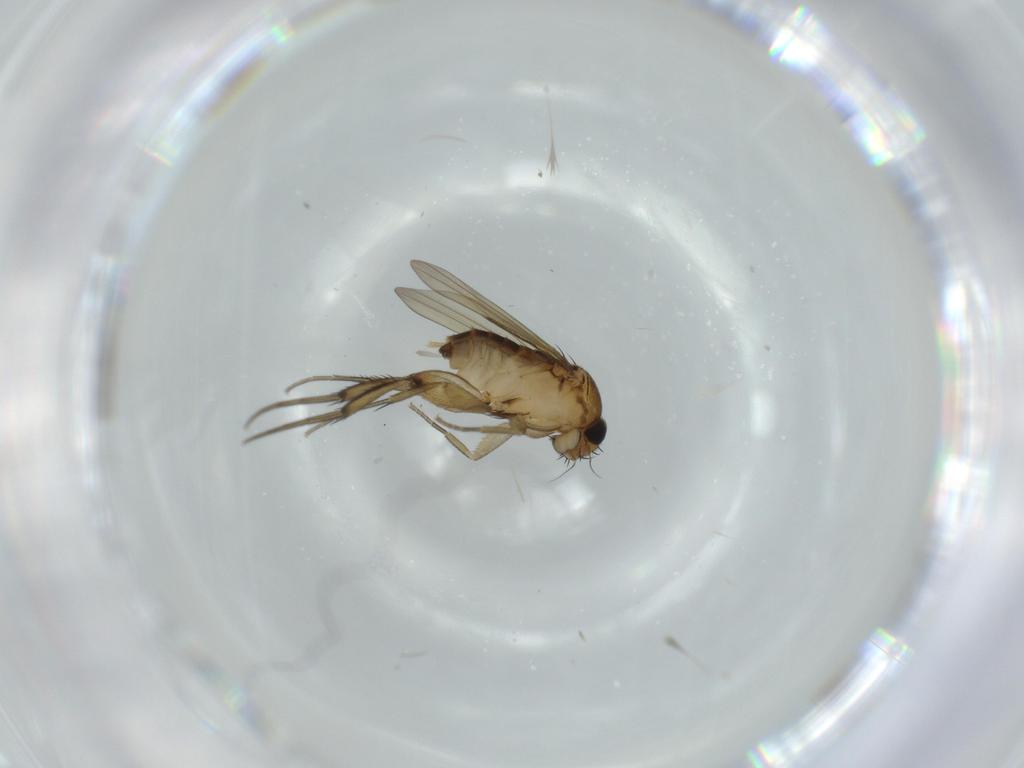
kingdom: Animalia
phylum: Arthropoda
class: Insecta
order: Diptera
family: Phoridae
